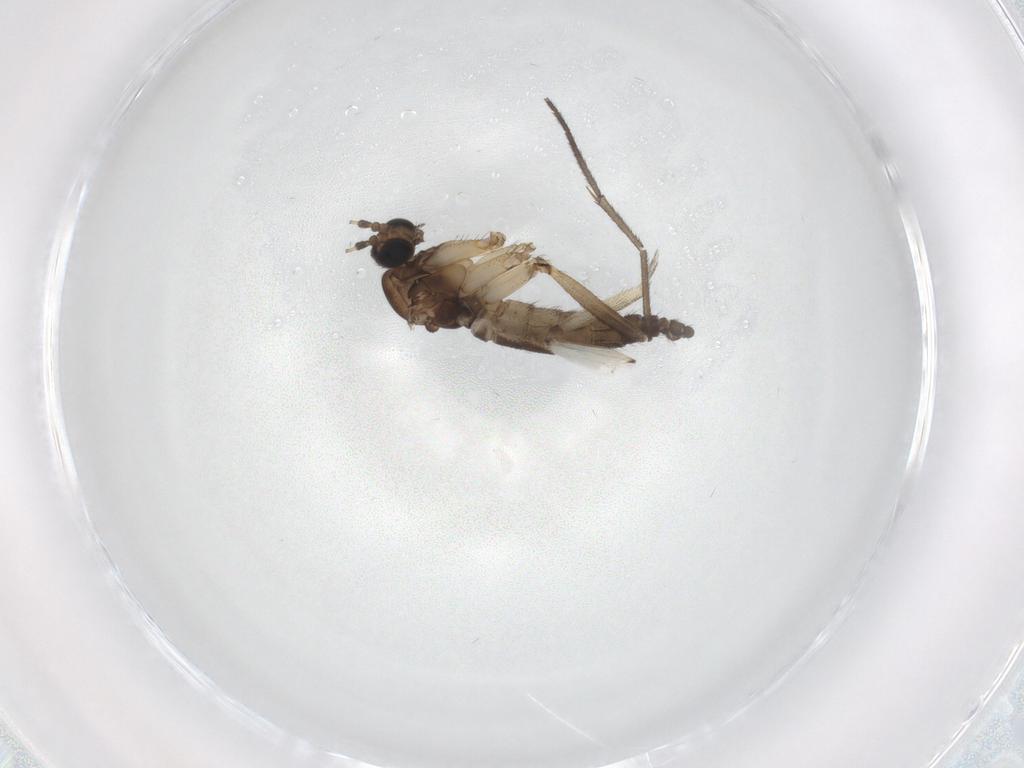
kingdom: Animalia
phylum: Arthropoda
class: Insecta
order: Diptera
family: Sciaridae
